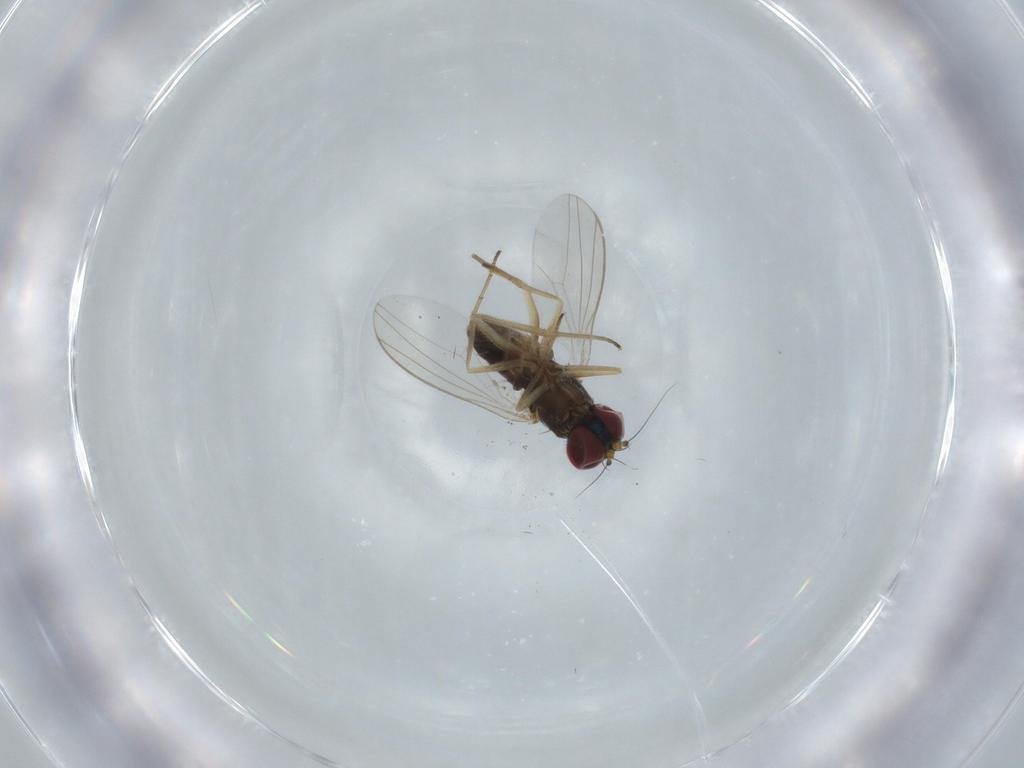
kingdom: Animalia
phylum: Arthropoda
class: Insecta
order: Diptera
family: Dolichopodidae
